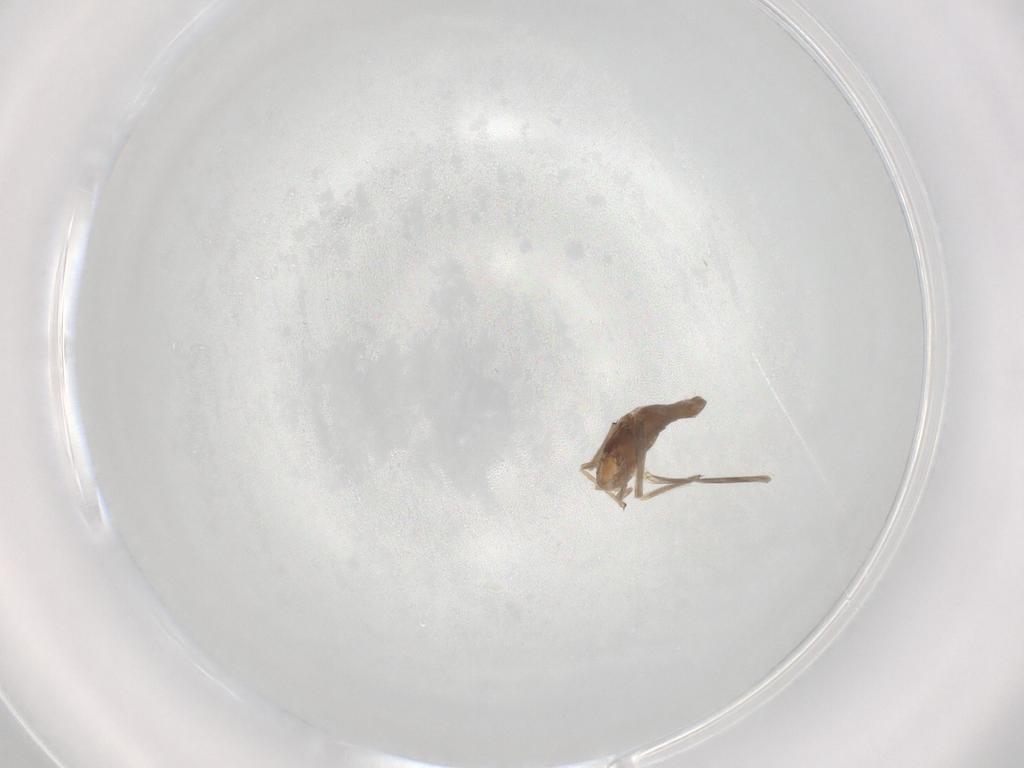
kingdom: Animalia
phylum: Arthropoda
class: Insecta
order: Diptera
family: Chironomidae
